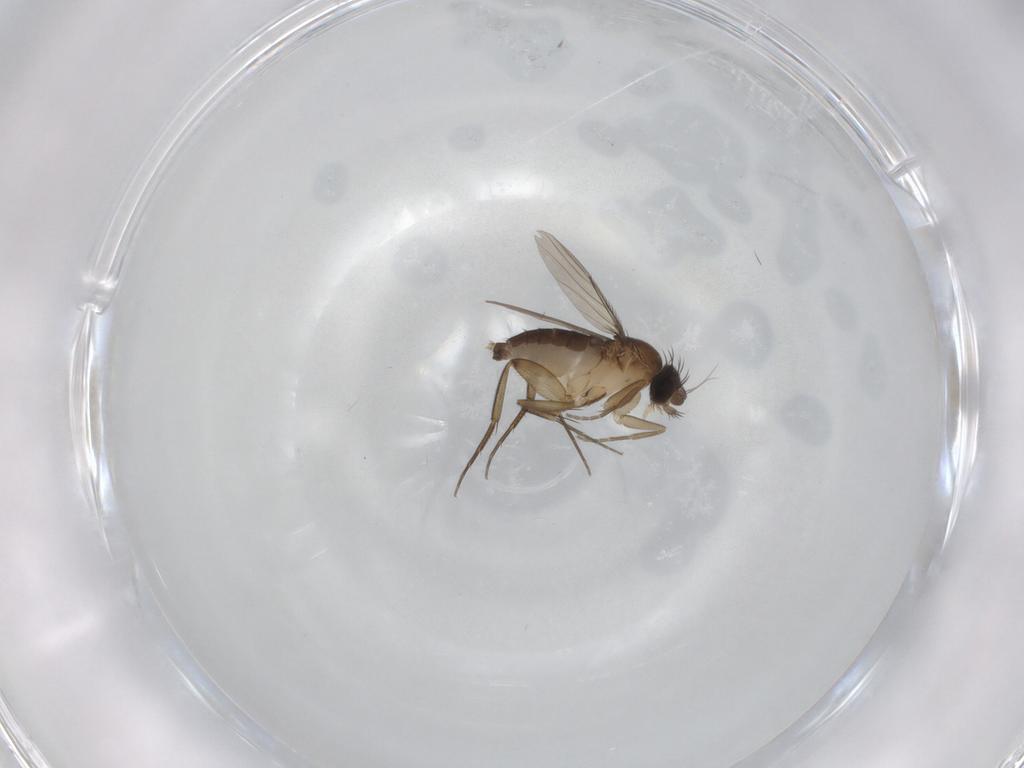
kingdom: Animalia
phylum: Arthropoda
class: Insecta
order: Diptera
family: Phoridae
